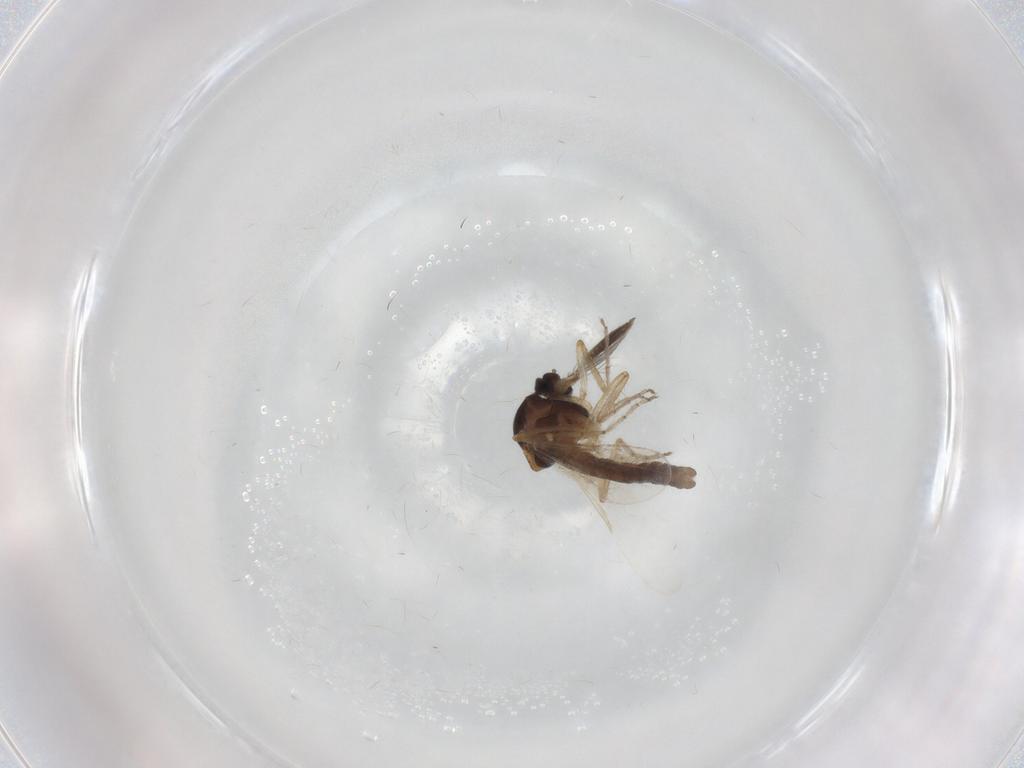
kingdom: Animalia
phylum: Arthropoda
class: Insecta
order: Diptera
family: Ceratopogonidae
